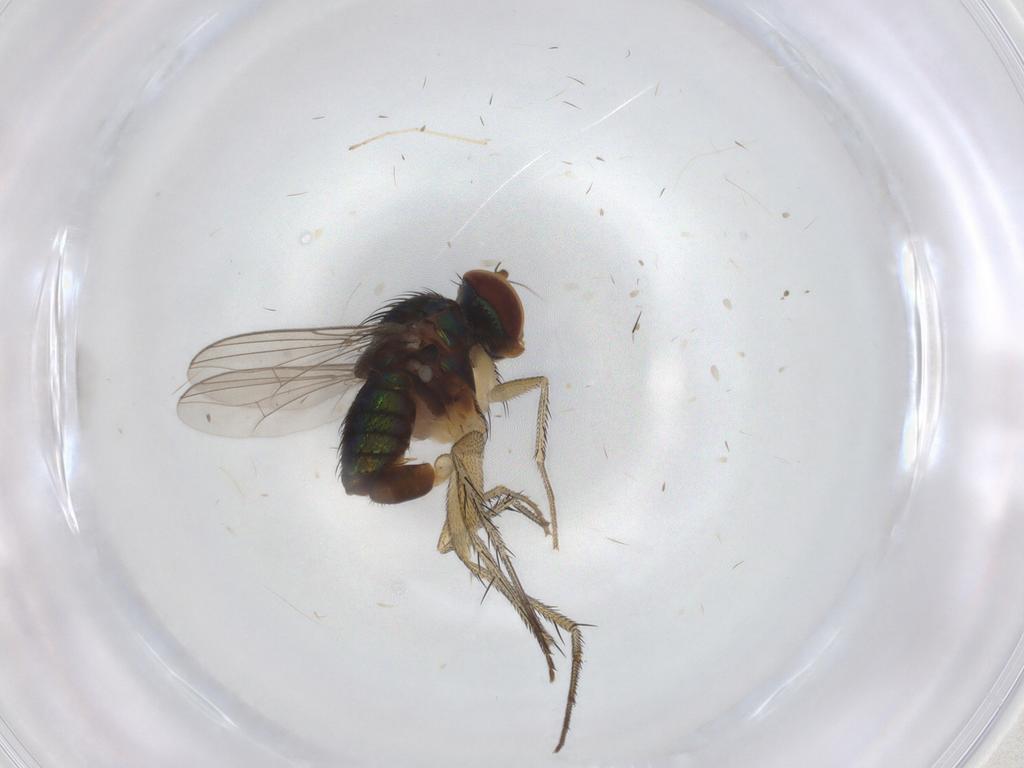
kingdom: Animalia
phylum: Arthropoda
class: Insecta
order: Diptera
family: Dolichopodidae
